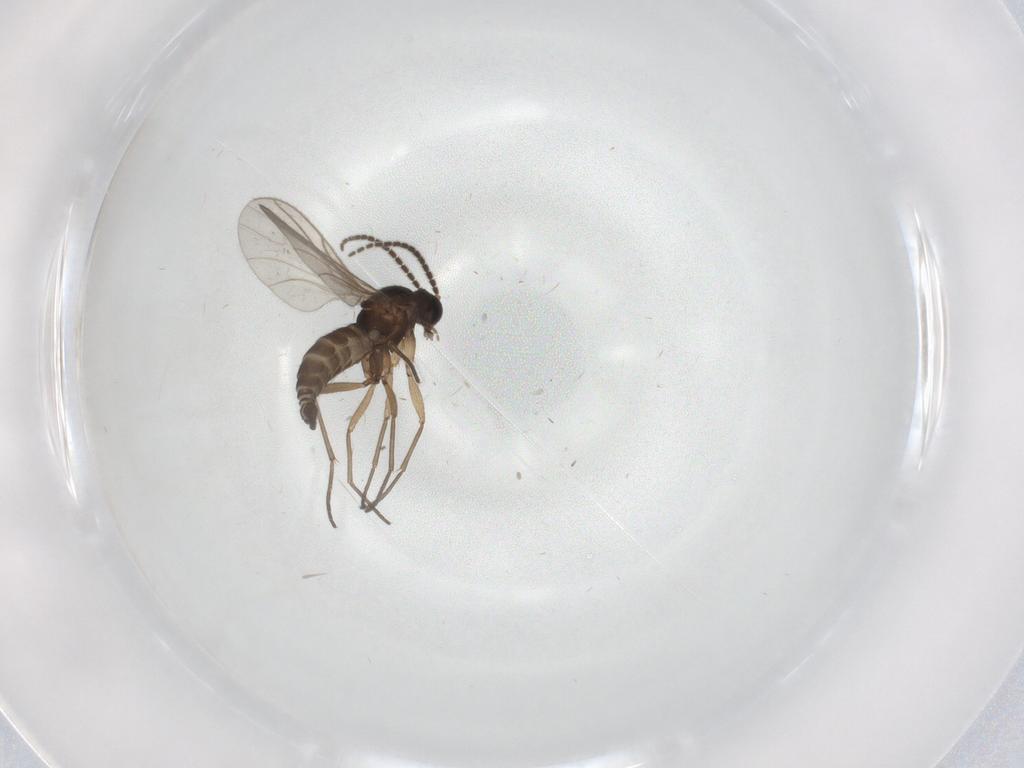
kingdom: Animalia
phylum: Arthropoda
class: Insecta
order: Diptera
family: Sciaridae
